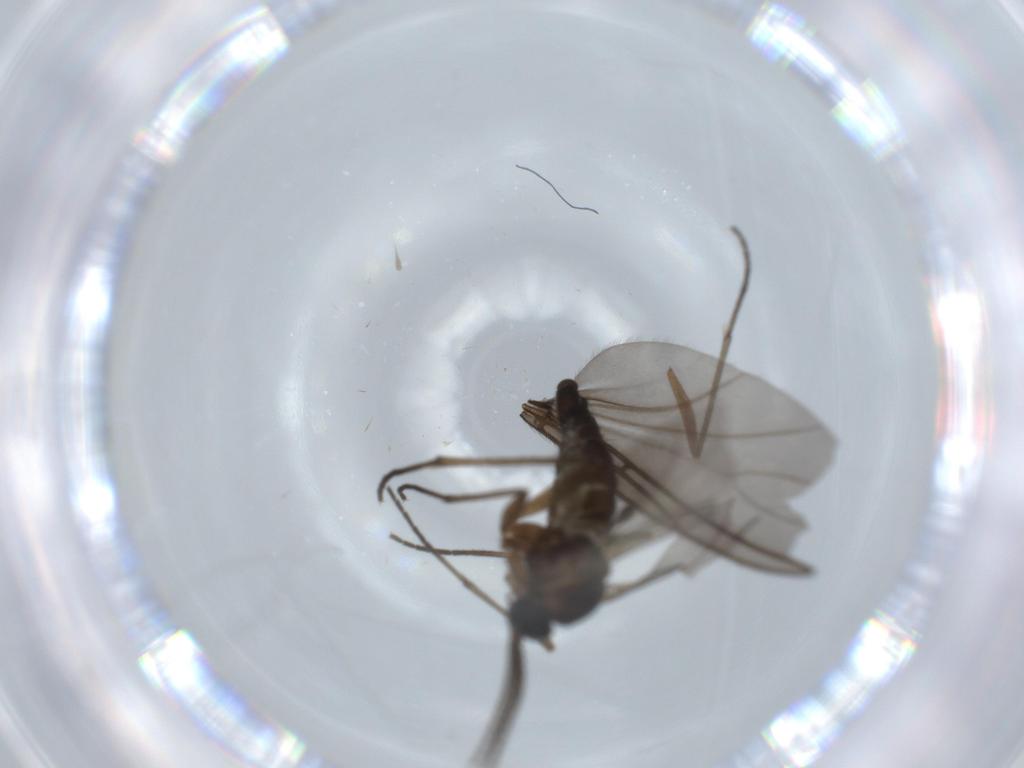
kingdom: Animalia
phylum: Arthropoda
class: Insecta
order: Diptera
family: Sciaridae
